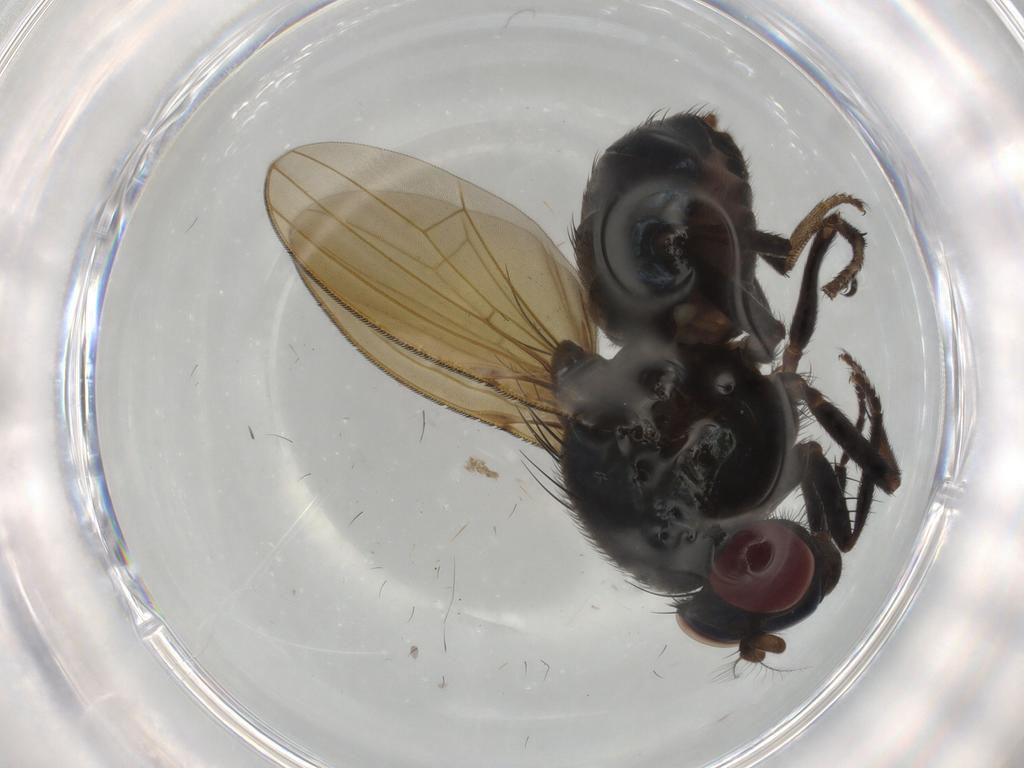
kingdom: Animalia
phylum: Arthropoda
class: Insecta
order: Diptera
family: Lauxaniidae
